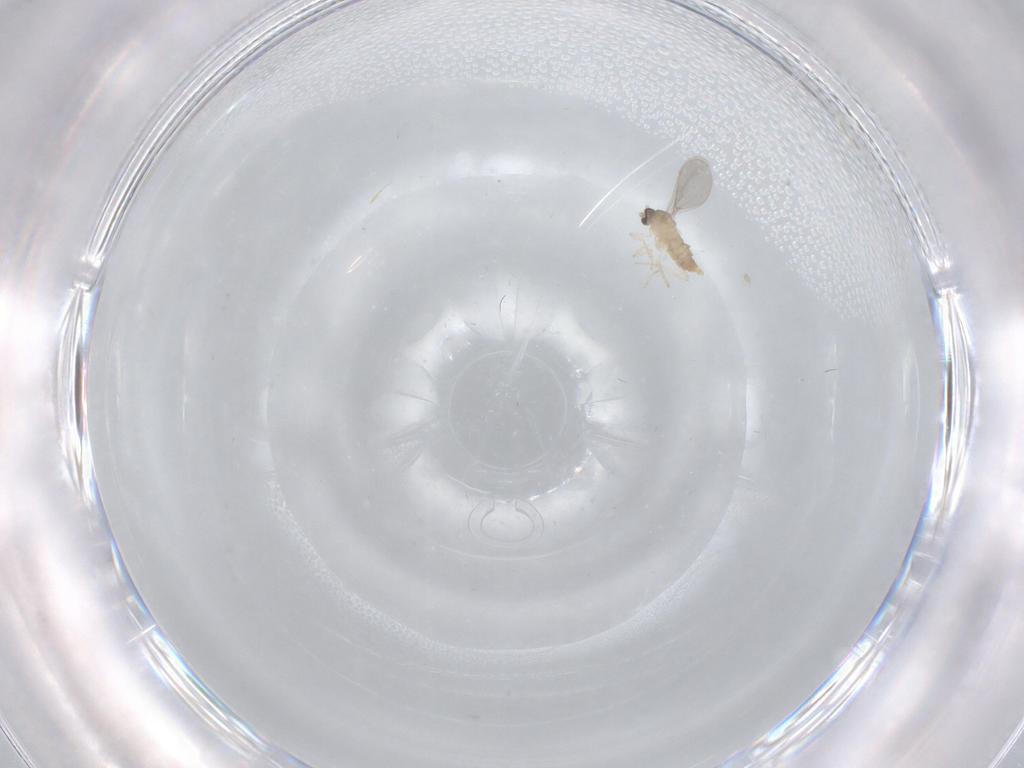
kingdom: Animalia
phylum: Arthropoda
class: Insecta
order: Diptera
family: Cecidomyiidae
